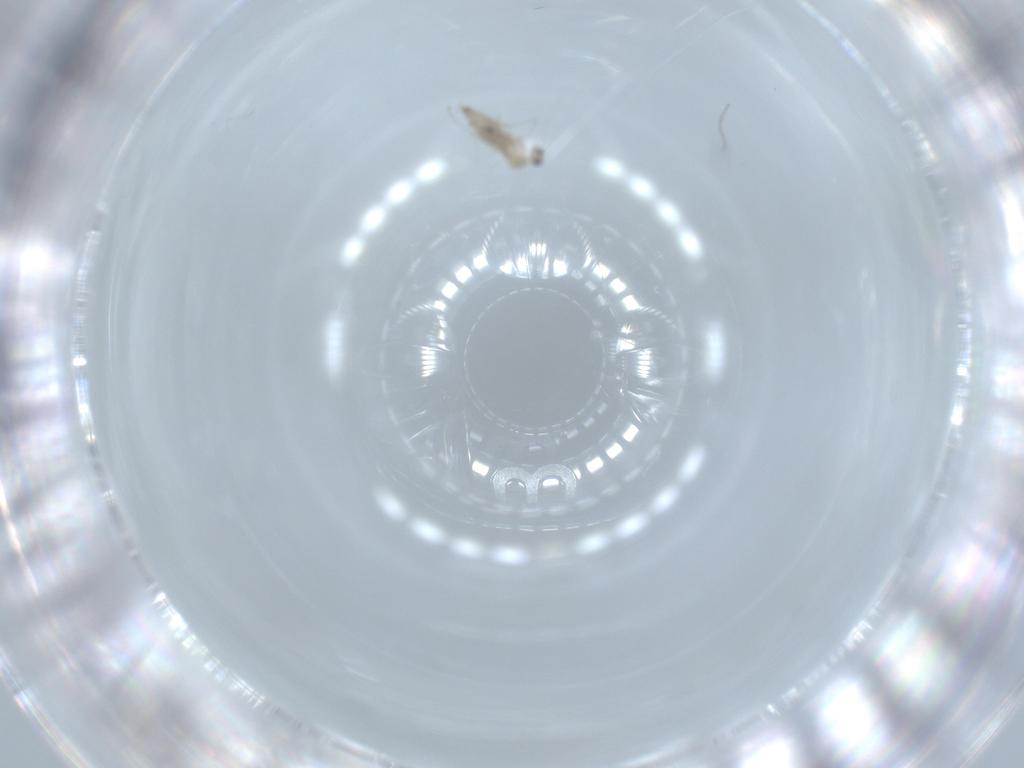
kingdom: Animalia
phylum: Arthropoda
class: Insecta
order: Diptera
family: Cecidomyiidae
